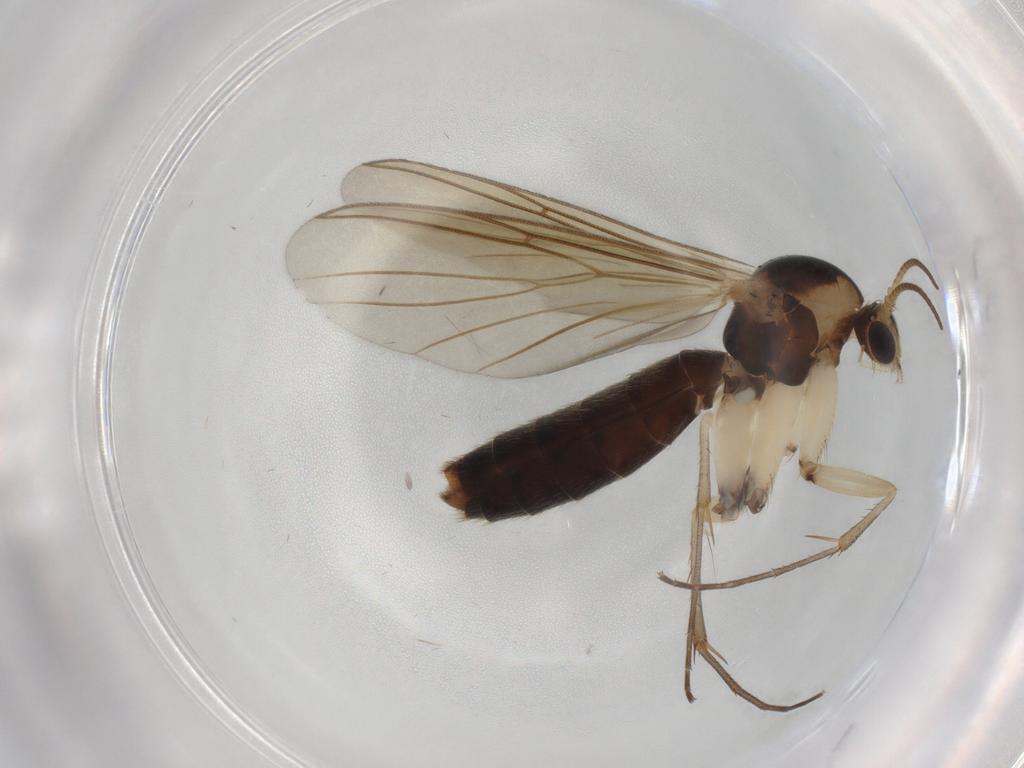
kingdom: Animalia
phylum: Arthropoda
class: Insecta
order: Diptera
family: Mycetophilidae
